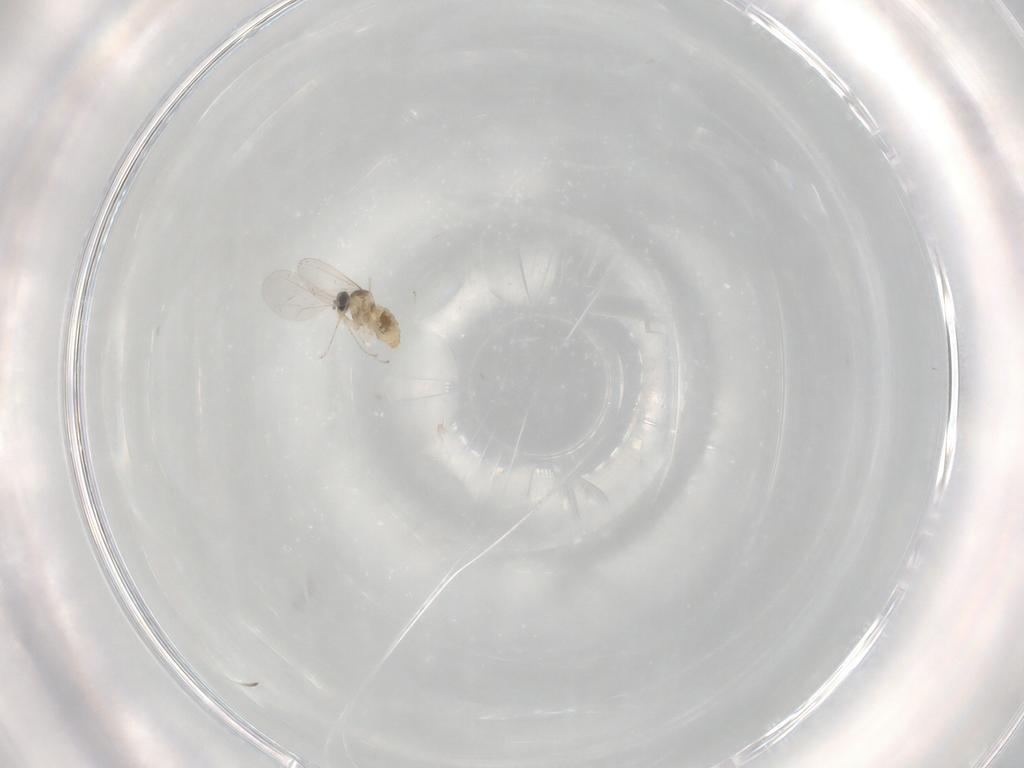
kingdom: Animalia
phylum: Arthropoda
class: Insecta
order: Diptera
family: Cecidomyiidae
